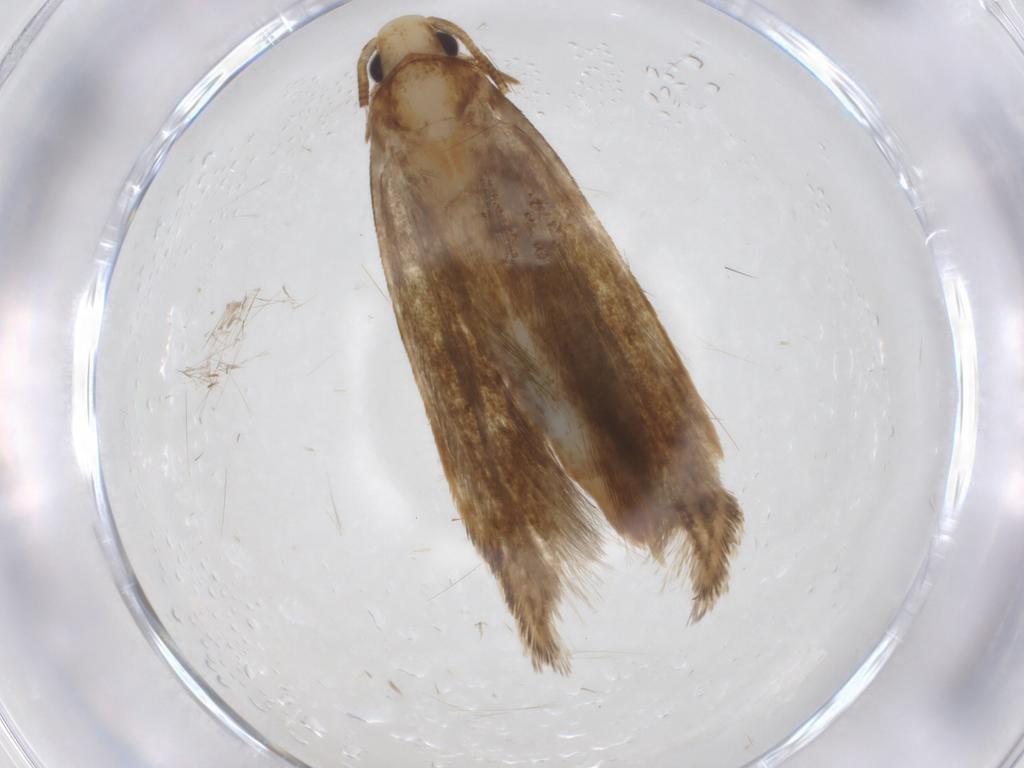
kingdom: Animalia
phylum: Arthropoda
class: Insecta
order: Lepidoptera
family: Tineidae
